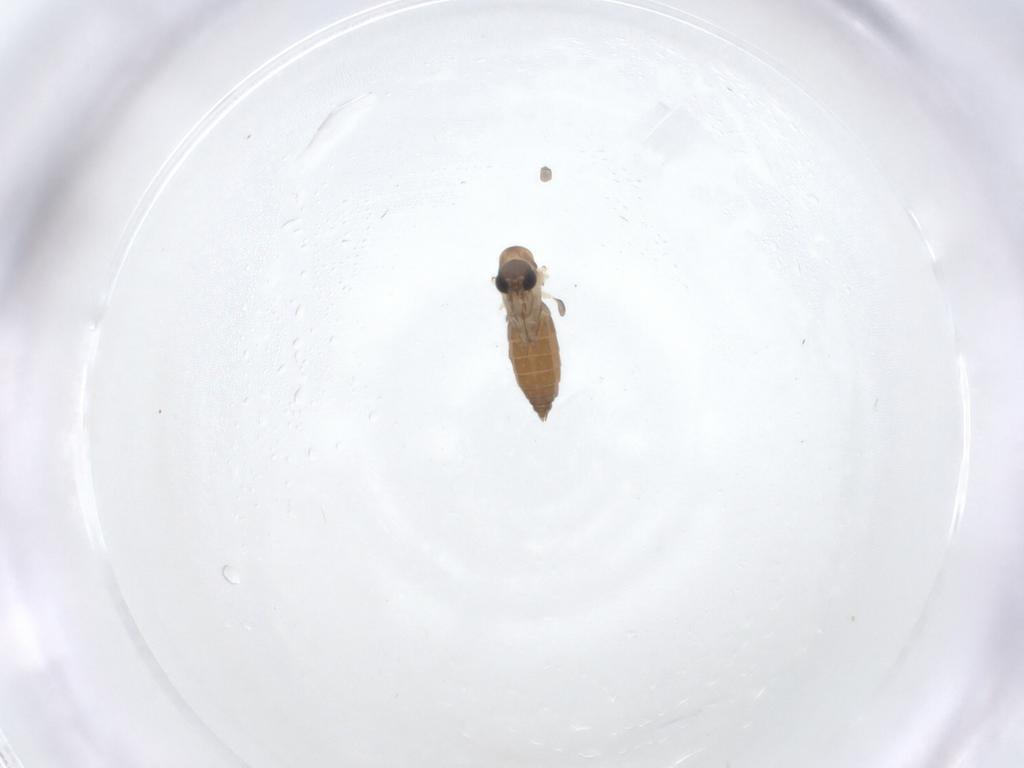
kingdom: Animalia
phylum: Arthropoda
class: Insecta
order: Diptera
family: Psychodidae
